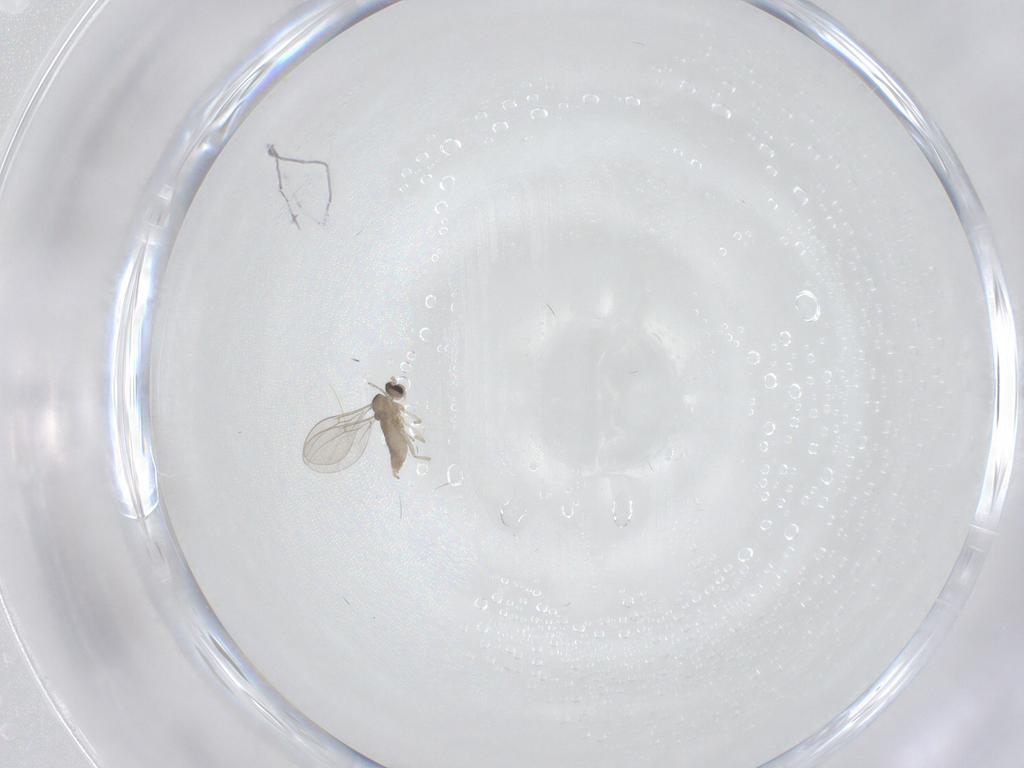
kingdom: Animalia
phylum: Arthropoda
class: Insecta
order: Diptera
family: Cecidomyiidae
